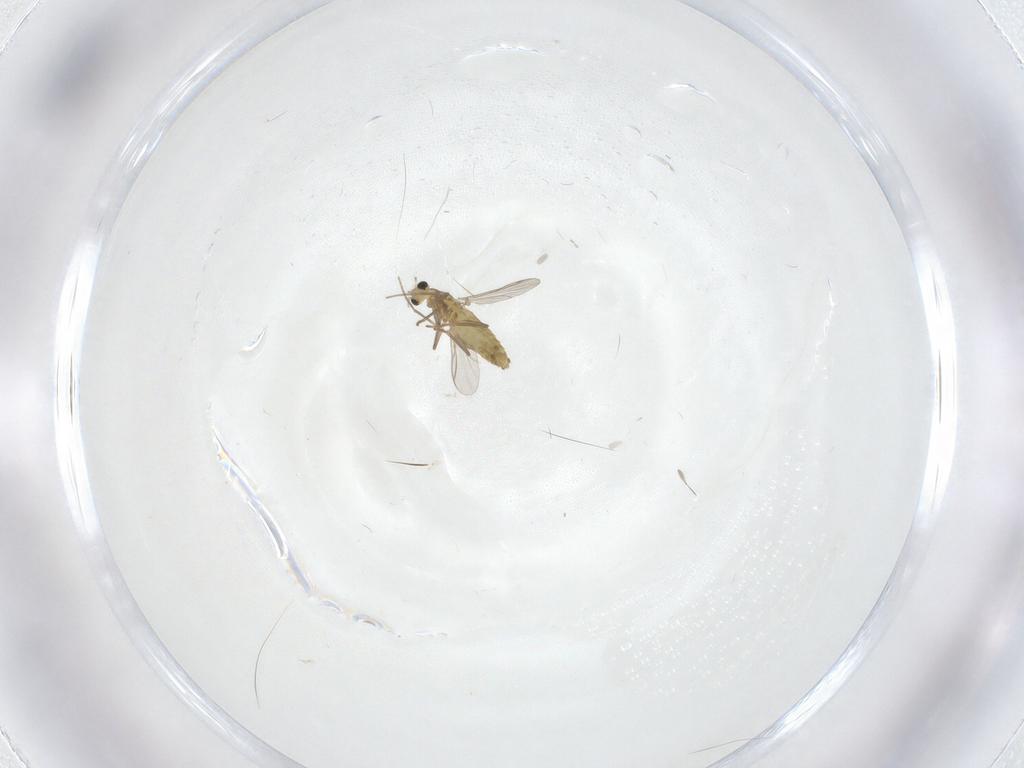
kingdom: Animalia
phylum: Arthropoda
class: Insecta
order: Diptera
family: Chironomidae
